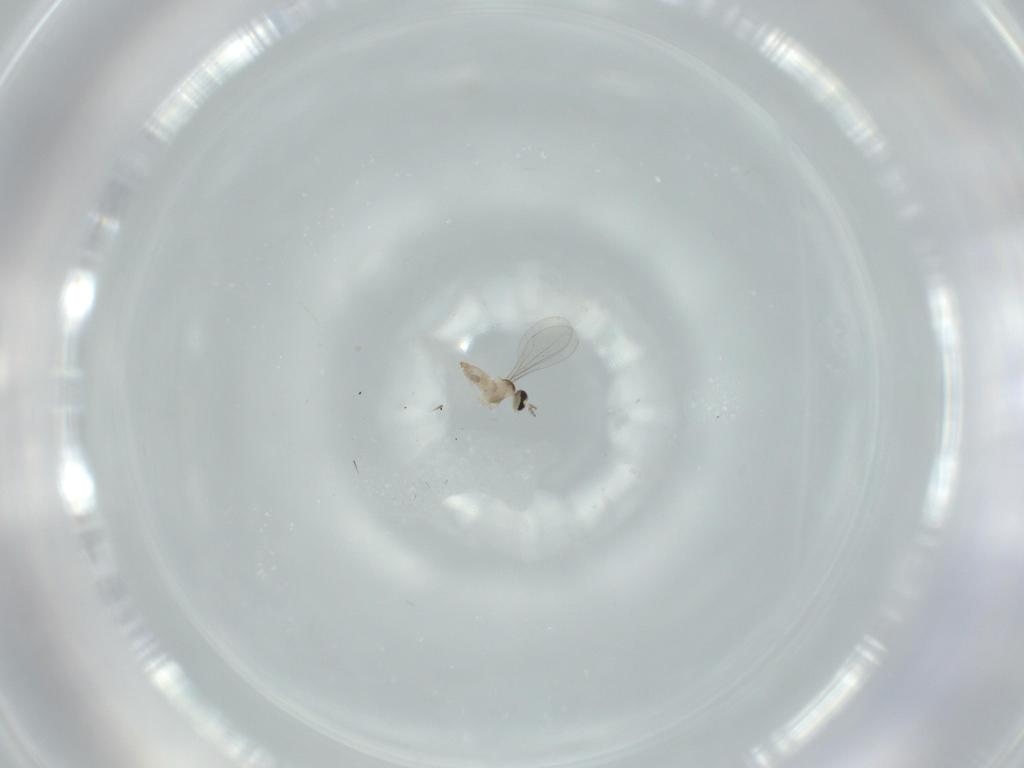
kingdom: Animalia
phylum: Arthropoda
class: Insecta
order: Diptera
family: Cecidomyiidae
